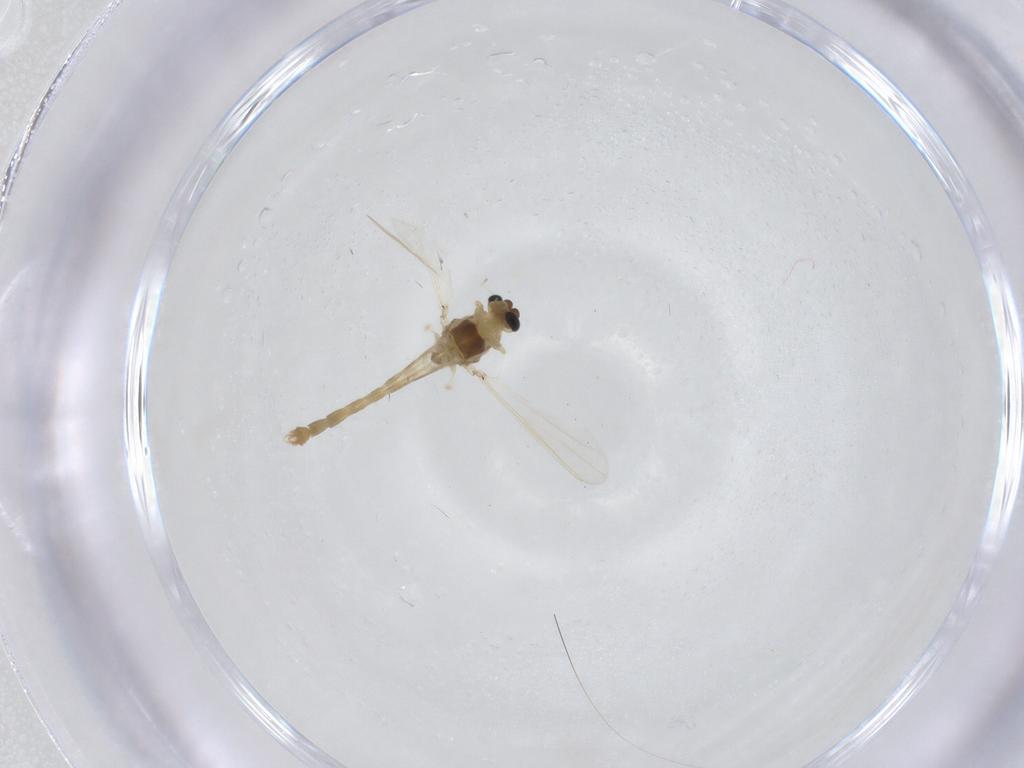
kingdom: Animalia
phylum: Arthropoda
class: Insecta
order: Diptera
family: Chironomidae
